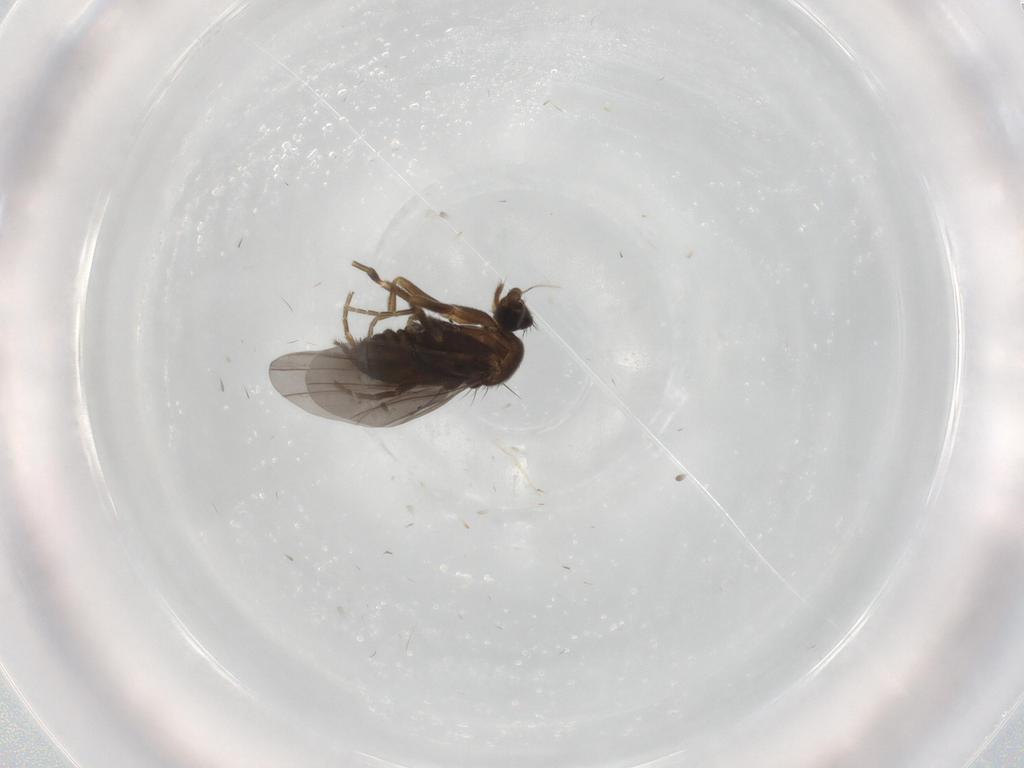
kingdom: Animalia
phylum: Arthropoda
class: Insecta
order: Diptera
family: Phoridae
